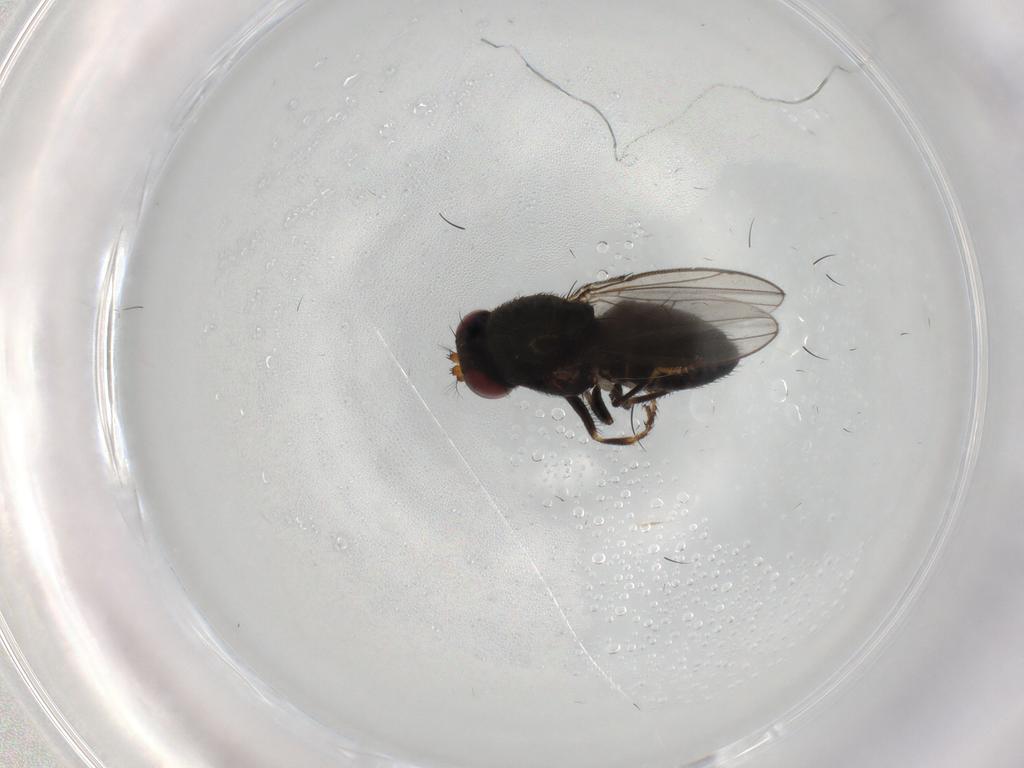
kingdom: Animalia
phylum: Arthropoda
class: Insecta
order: Diptera
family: Ephydridae
